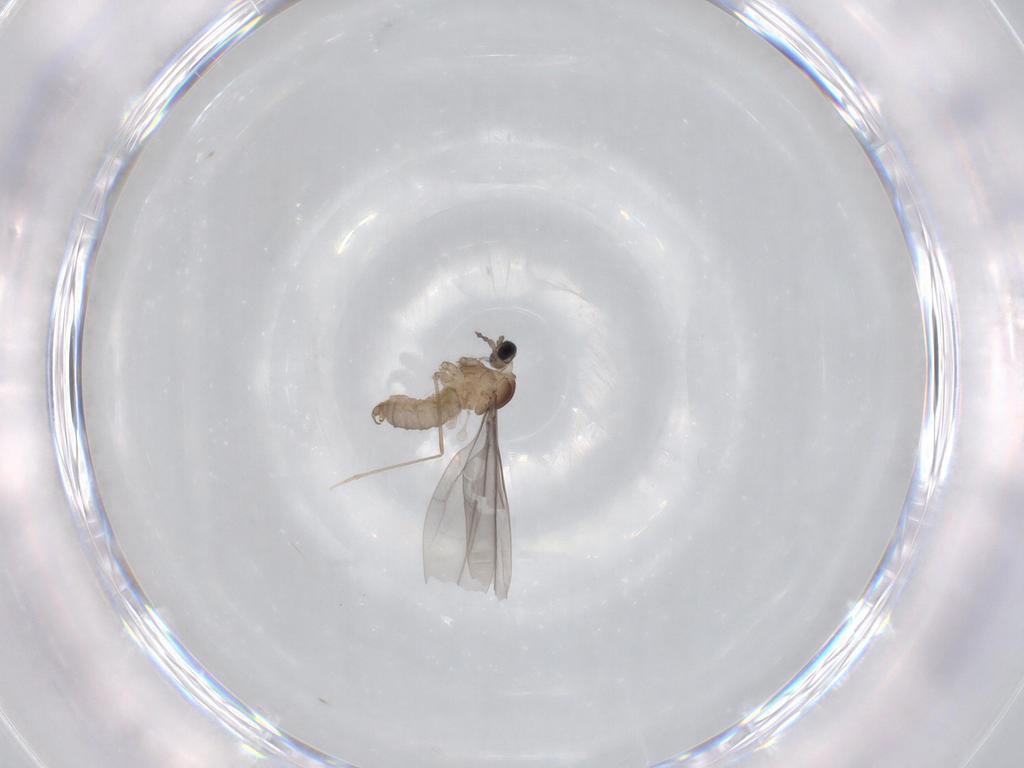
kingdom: Animalia
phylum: Arthropoda
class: Insecta
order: Diptera
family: Cecidomyiidae
